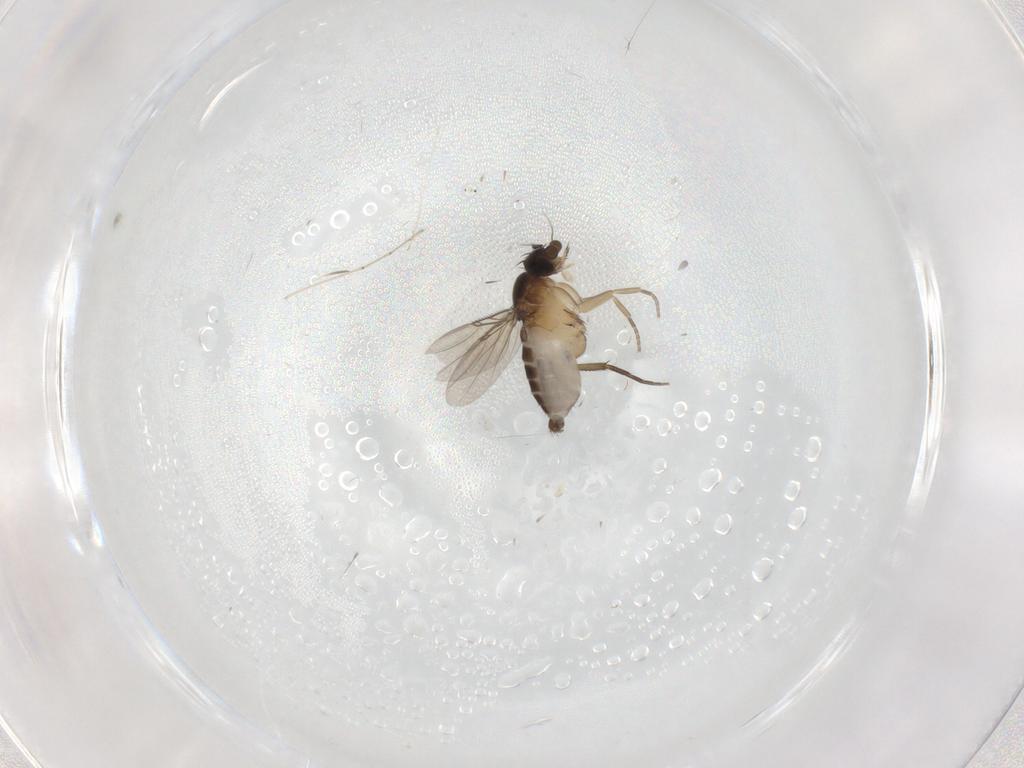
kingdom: Animalia
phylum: Arthropoda
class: Insecta
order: Diptera
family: Phoridae
